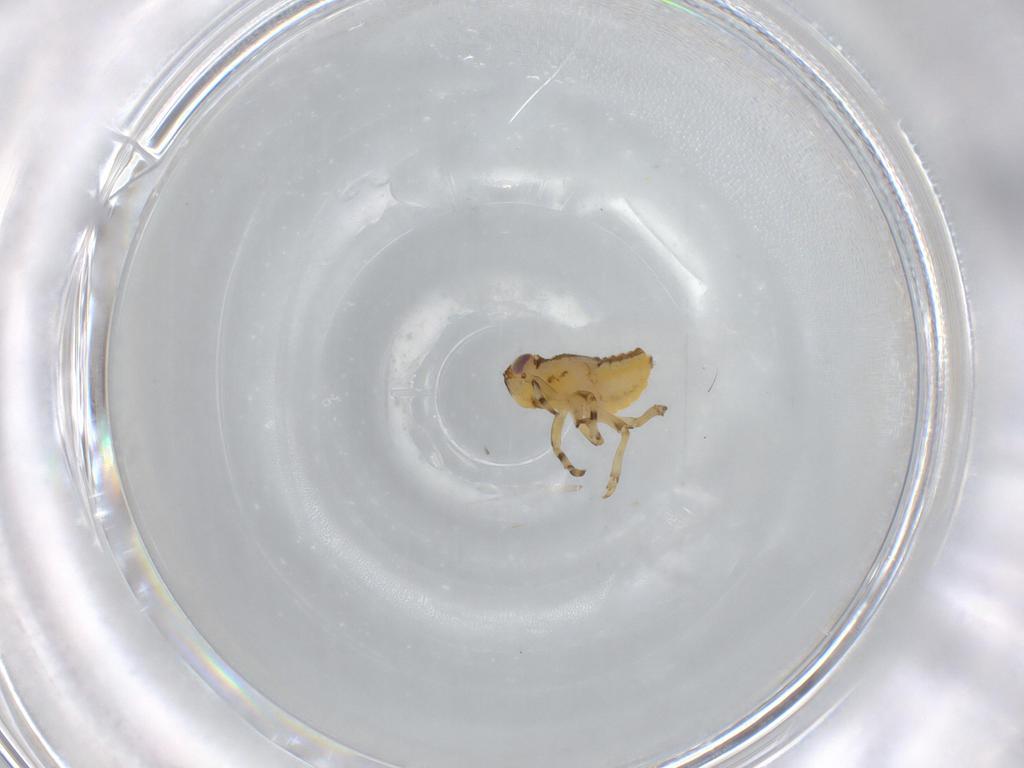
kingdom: Animalia
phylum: Arthropoda
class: Insecta
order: Hemiptera
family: Issidae
